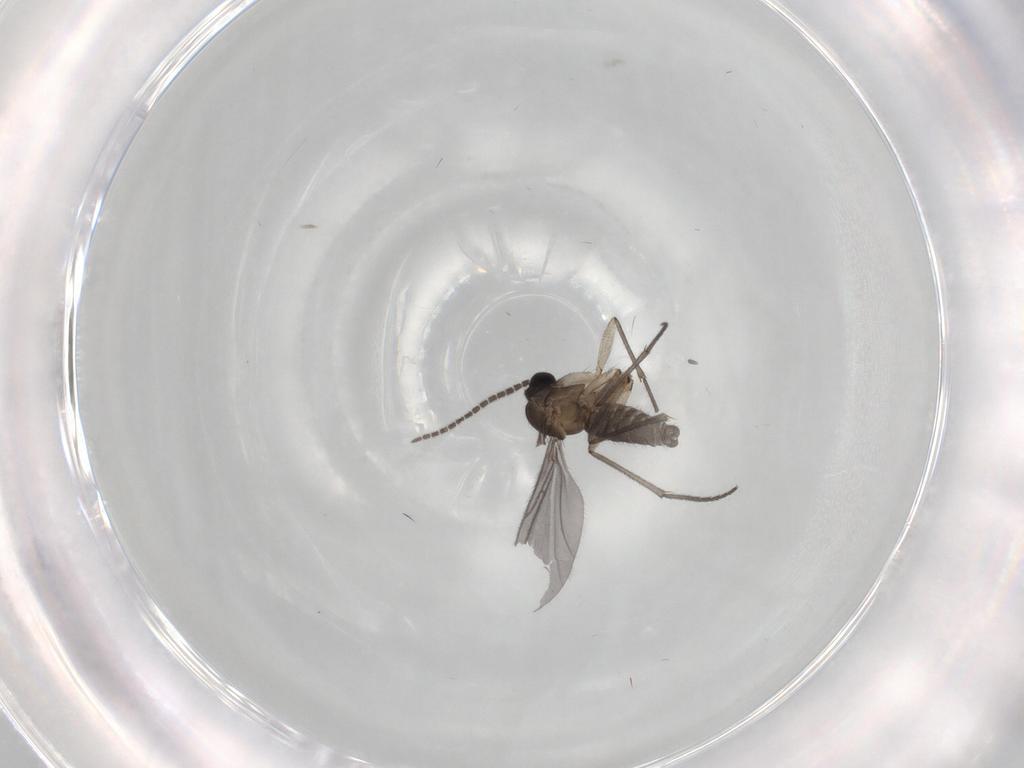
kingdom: Animalia
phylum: Arthropoda
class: Insecta
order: Diptera
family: Sciaridae
